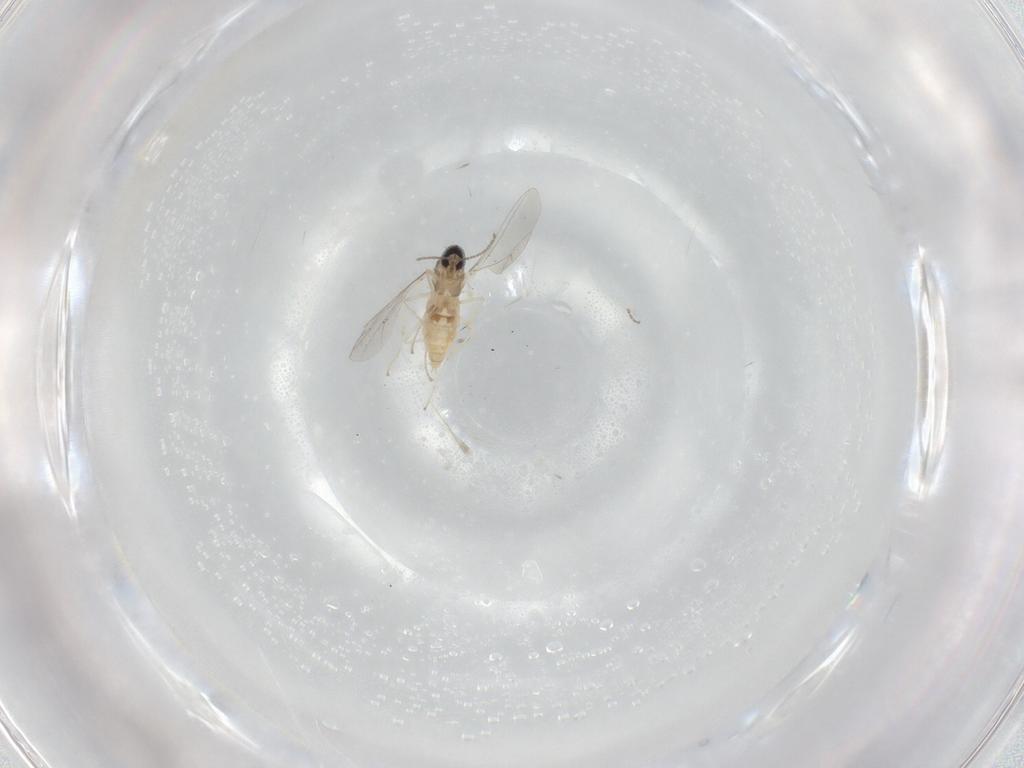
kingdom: Animalia
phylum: Arthropoda
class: Insecta
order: Diptera
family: Cecidomyiidae
